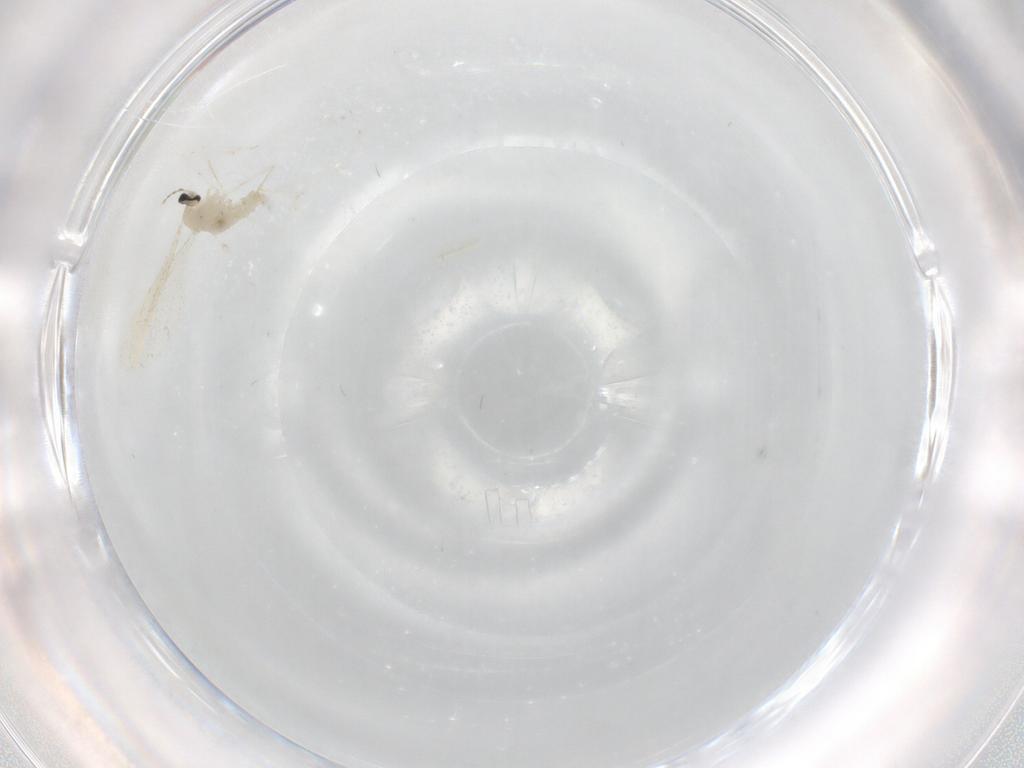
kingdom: Animalia
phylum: Arthropoda
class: Insecta
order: Diptera
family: Cecidomyiidae
